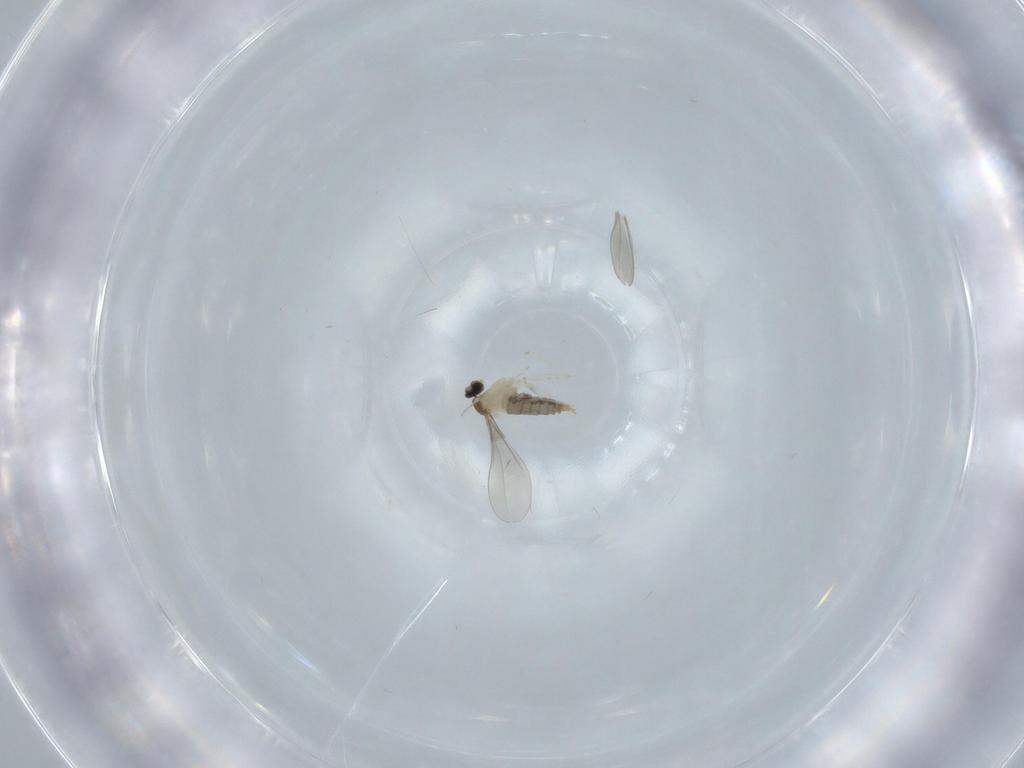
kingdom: Animalia
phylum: Arthropoda
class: Insecta
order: Diptera
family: Cecidomyiidae
